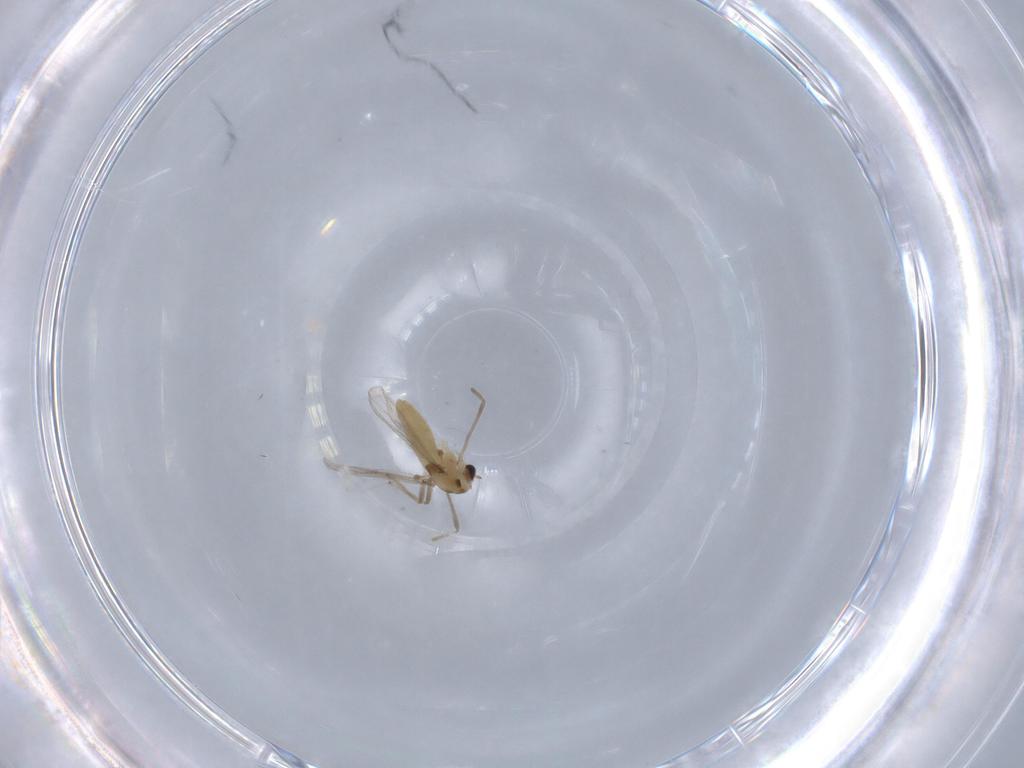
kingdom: Animalia
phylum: Arthropoda
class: Insecta
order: Diptera
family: Chironomidae
